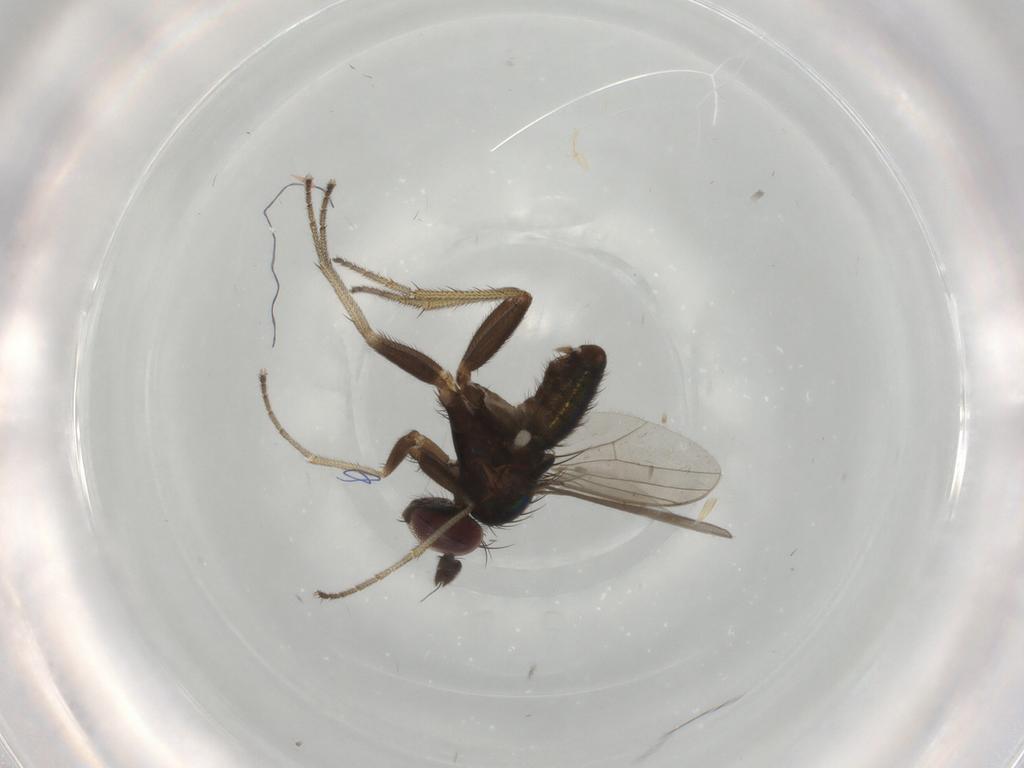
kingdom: Animalia
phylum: Arthropoda
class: Insecta
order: Diptera
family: Dolichopodidae
